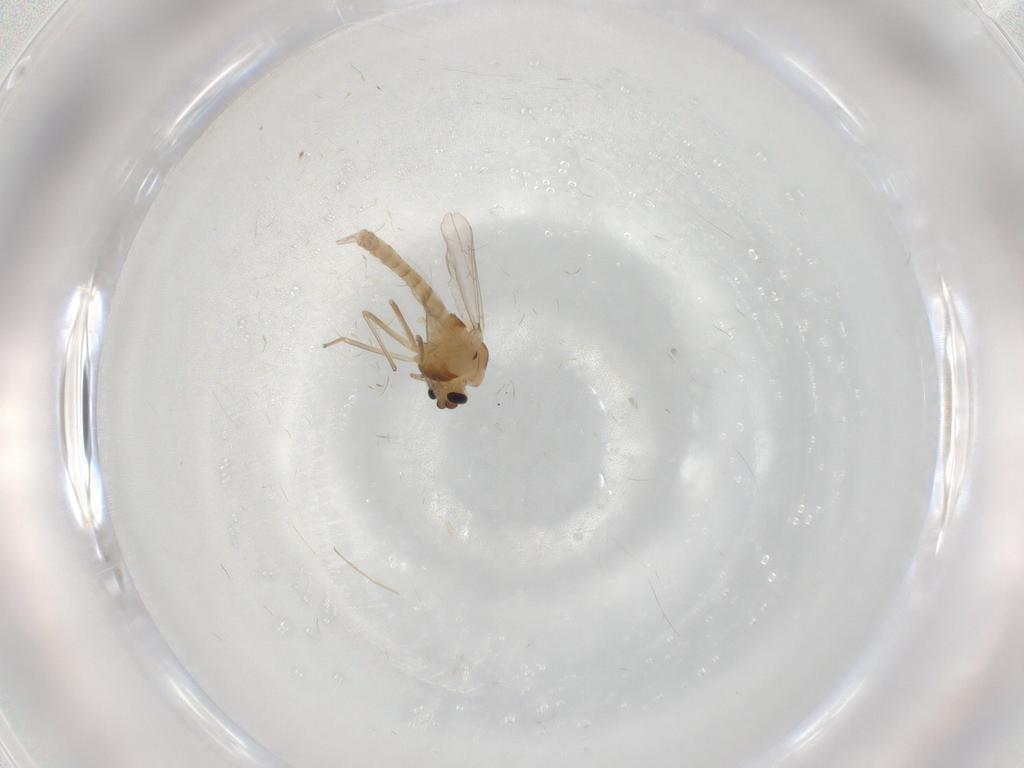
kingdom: Animalia
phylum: Arthropoda
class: Insecta
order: Diptera
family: Chironomidae
